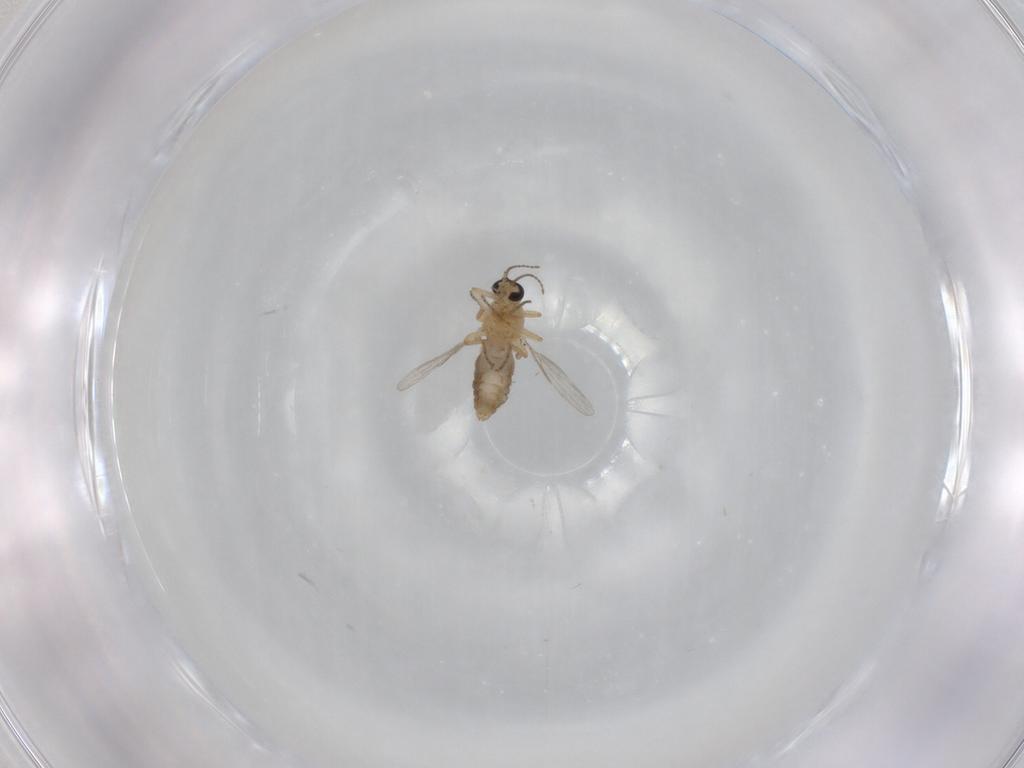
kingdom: Animalia
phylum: Arthropoda
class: Insecta
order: Diptera
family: Ceratopogonidae
